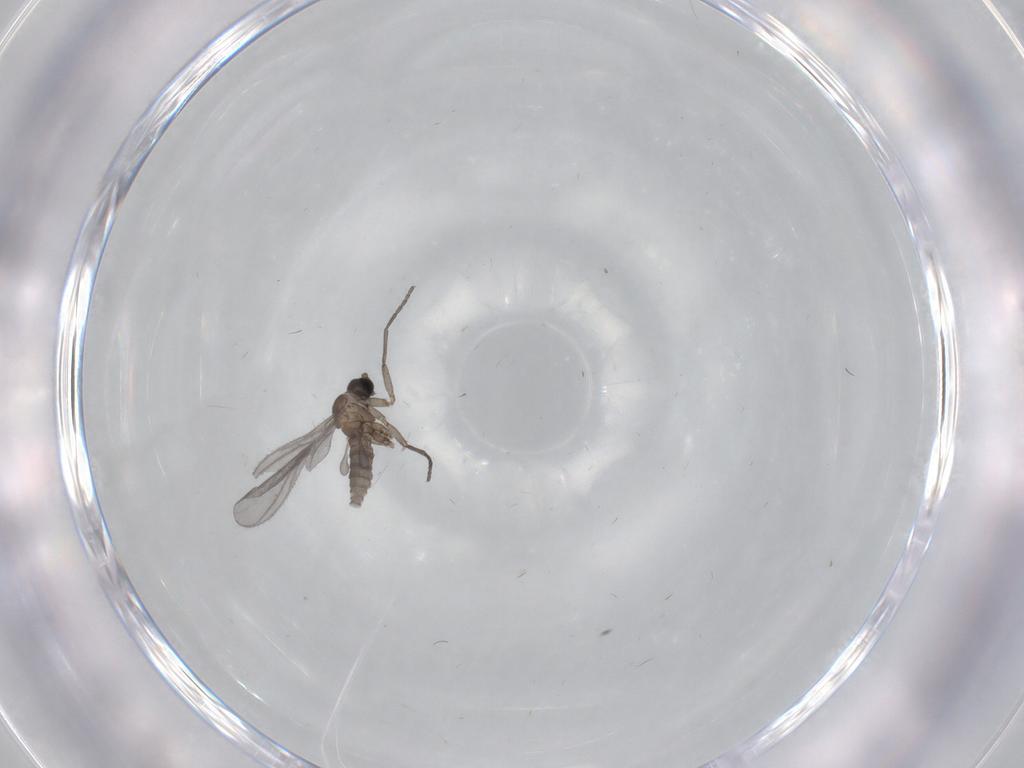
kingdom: Animalia
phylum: Arthropoda
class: Insecta
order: Diptera
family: Sciaridae
